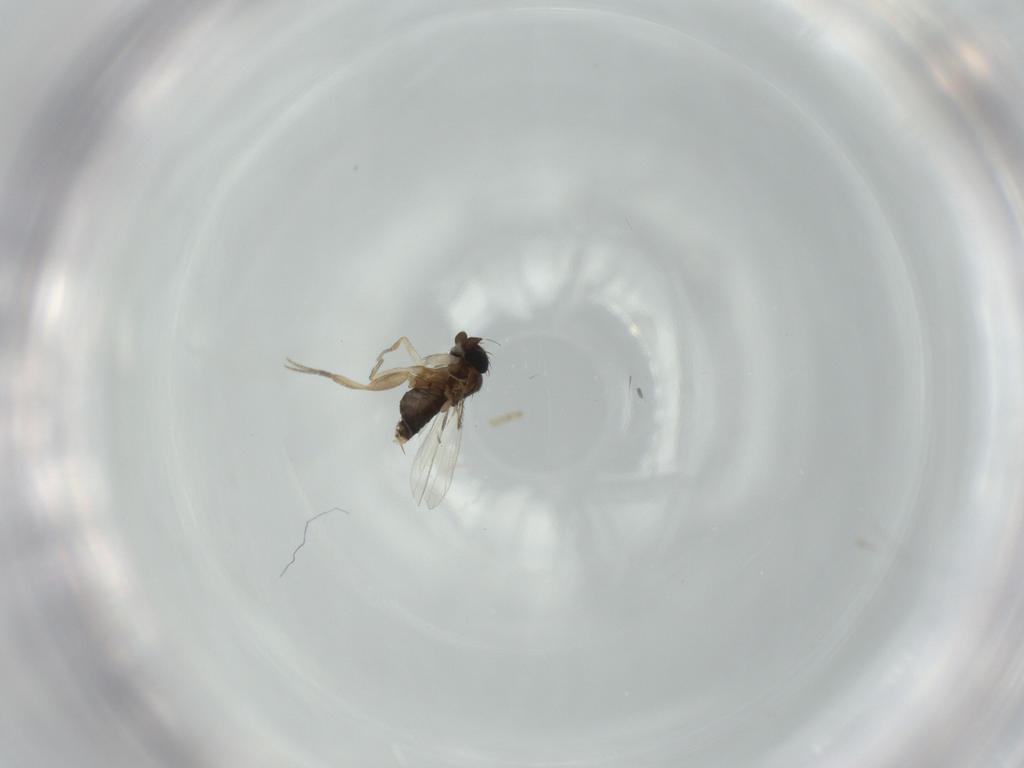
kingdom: Animalia
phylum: Arthropoda
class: Insecta
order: Diptera
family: Phoridae
